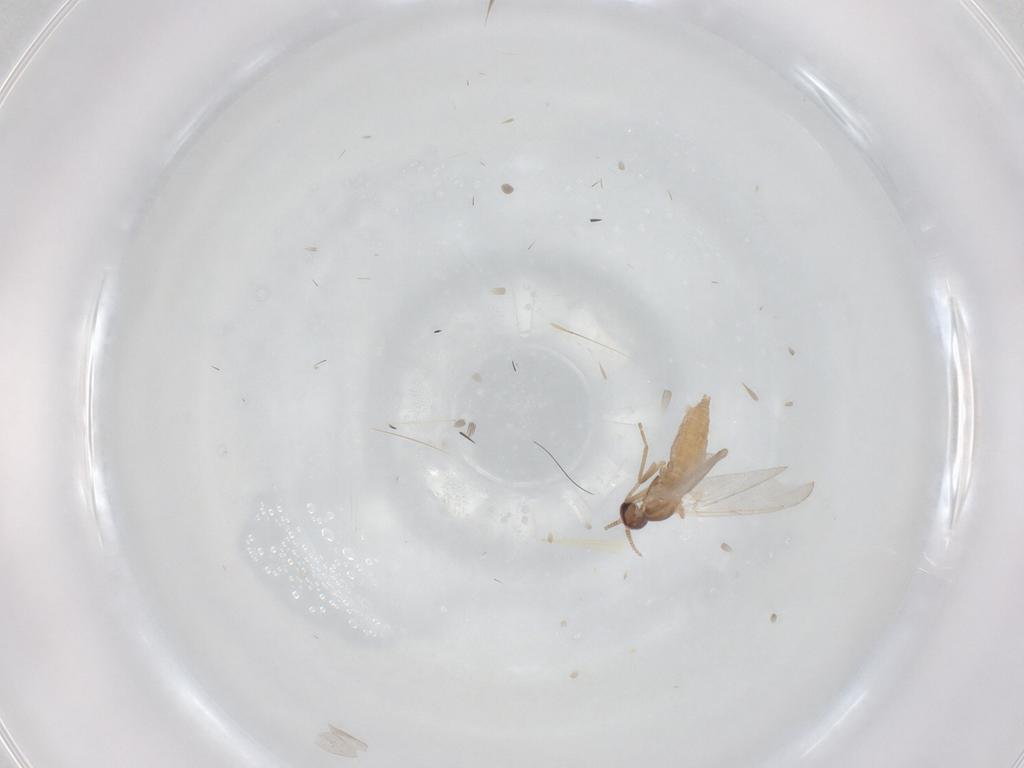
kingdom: Animalia
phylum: Arthropoda
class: Insecta
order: Diptera
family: Cecidomyiidae
